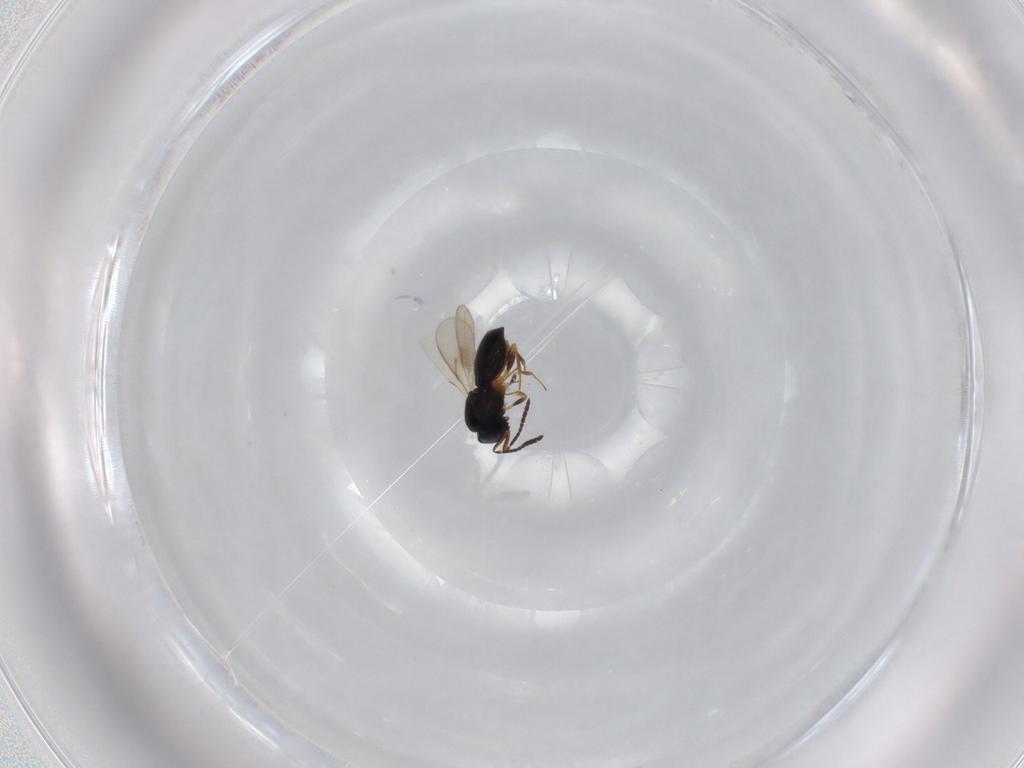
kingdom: Animalia
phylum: Arthropoda
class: Insecta
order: Hymenoptera
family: Scelionidae
